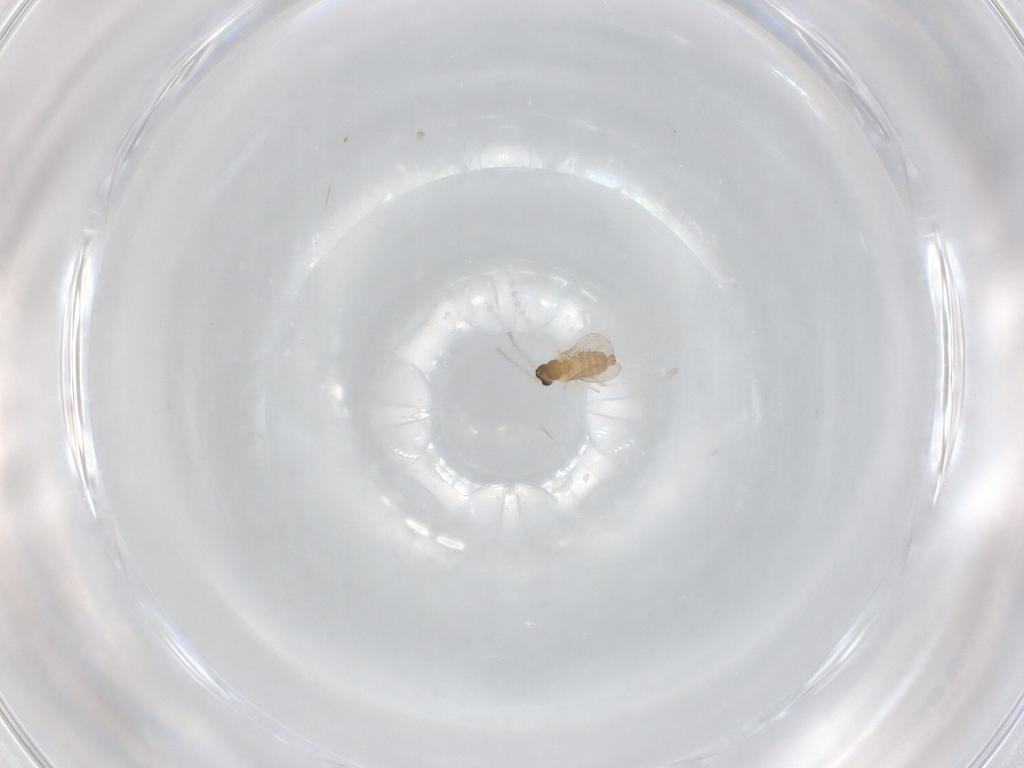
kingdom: Animalia
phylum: Arthropoda
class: Insecta
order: Diptera
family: Cecidomyiidae
